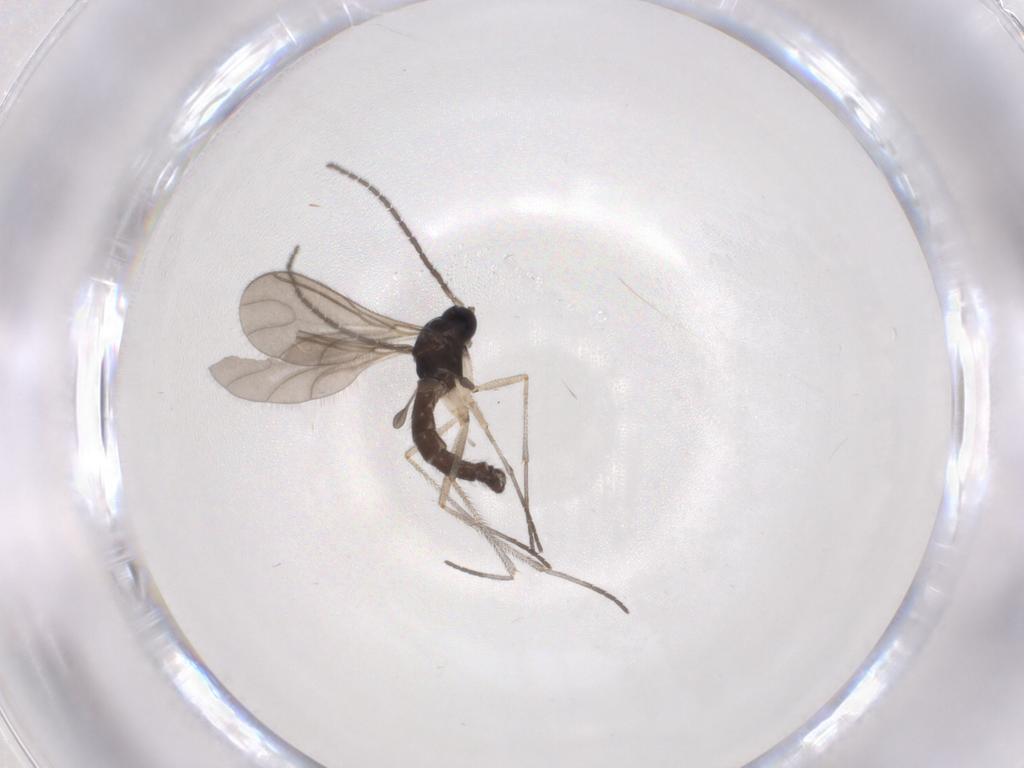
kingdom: Animalia
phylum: Arthropoda
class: Insecta
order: Diptera
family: Sciaridae
